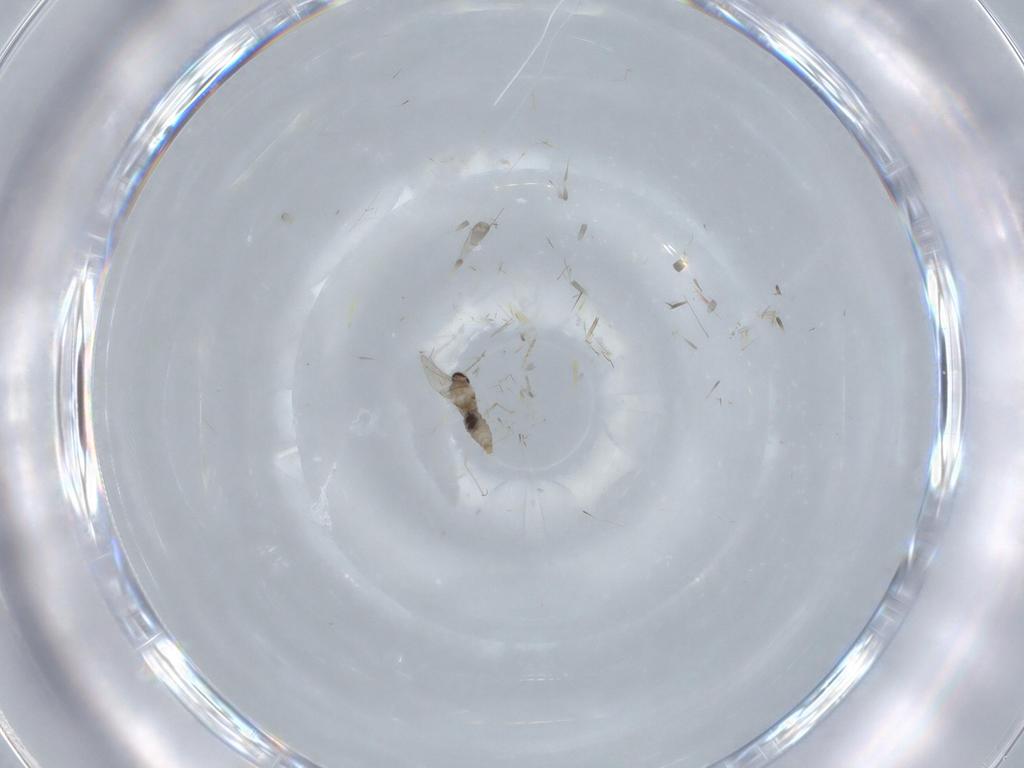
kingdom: Animalia
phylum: Arthropoda
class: Insecta
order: Diptera
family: Cecidomyiidae
